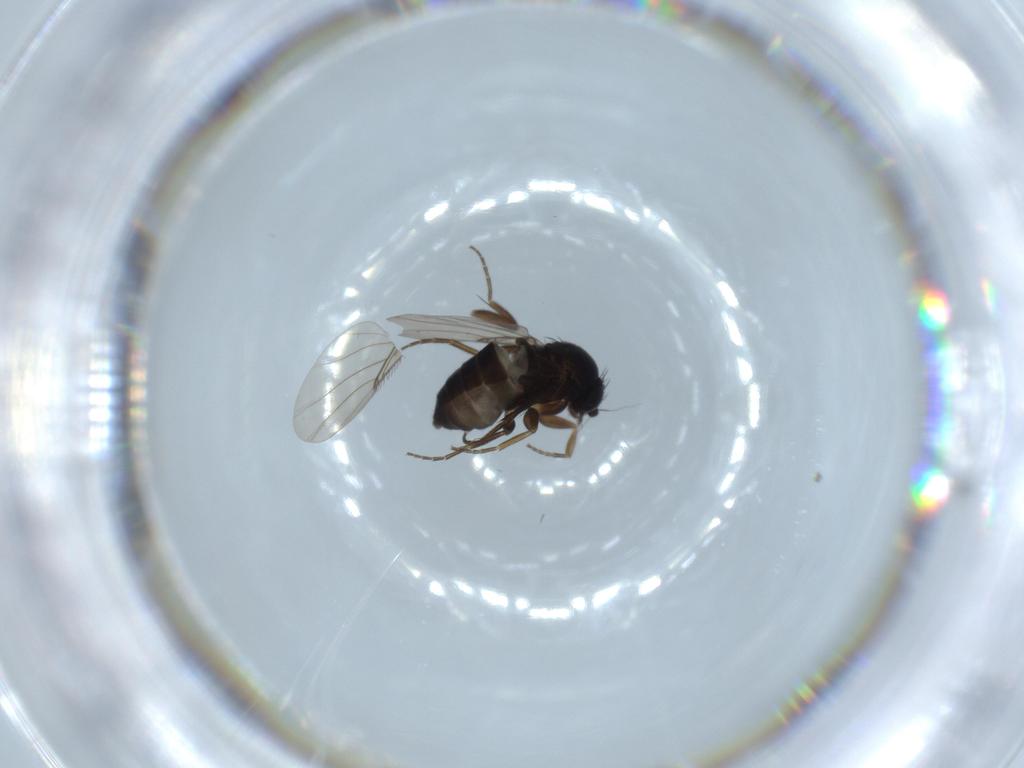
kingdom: Animalia
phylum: Arthropoda
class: Insecta
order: Diptera
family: Phoridae
